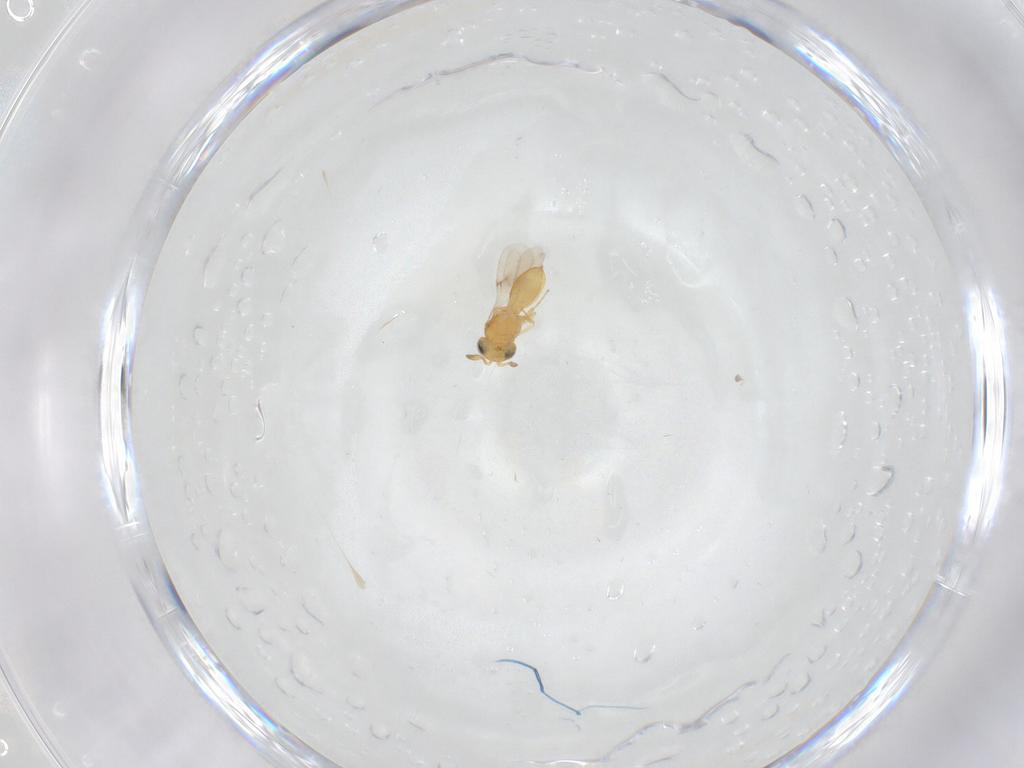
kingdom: Animalia
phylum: Arthropoda
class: Insecta
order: Hymenoptera
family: Scelionidae
